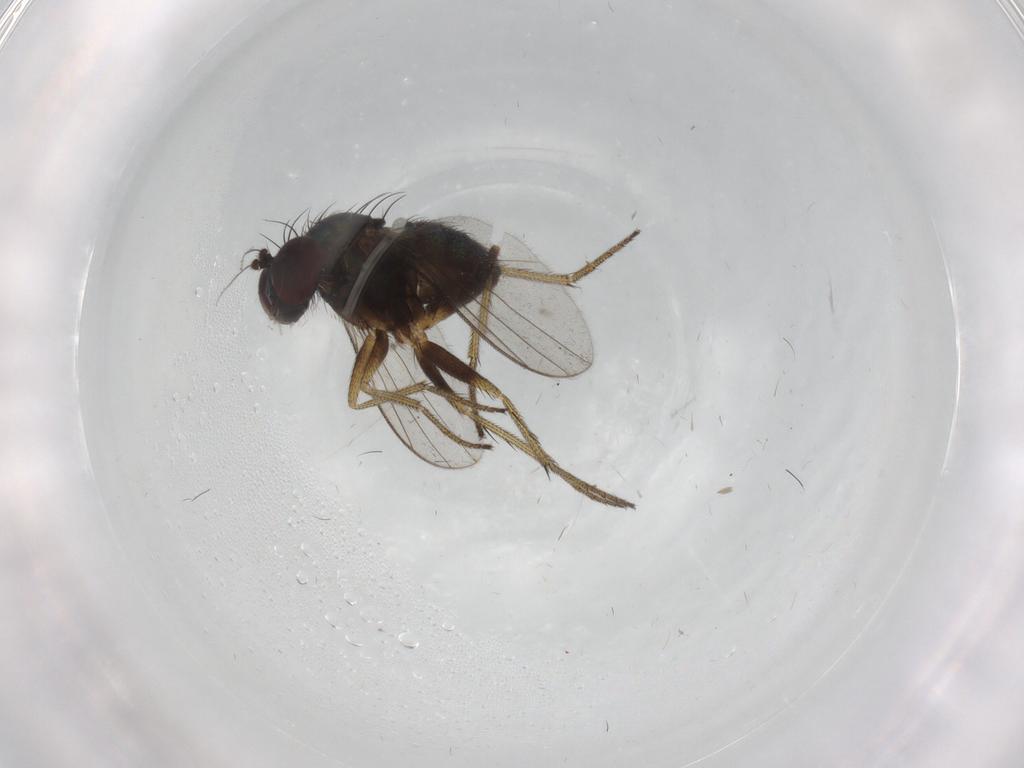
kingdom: Animalia
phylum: Arthropoda
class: Insecta
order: Diptera
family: Dolichopodidae
